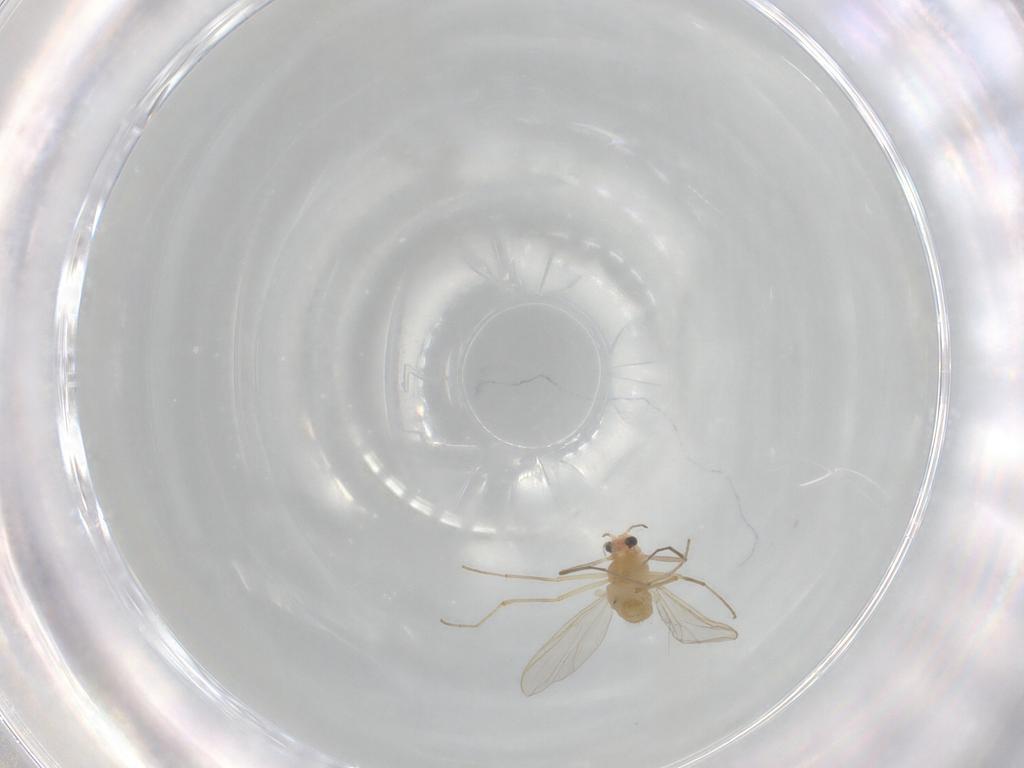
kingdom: Animalia
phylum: Arthropoda
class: Insecta
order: Diptera
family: Chironomidae
